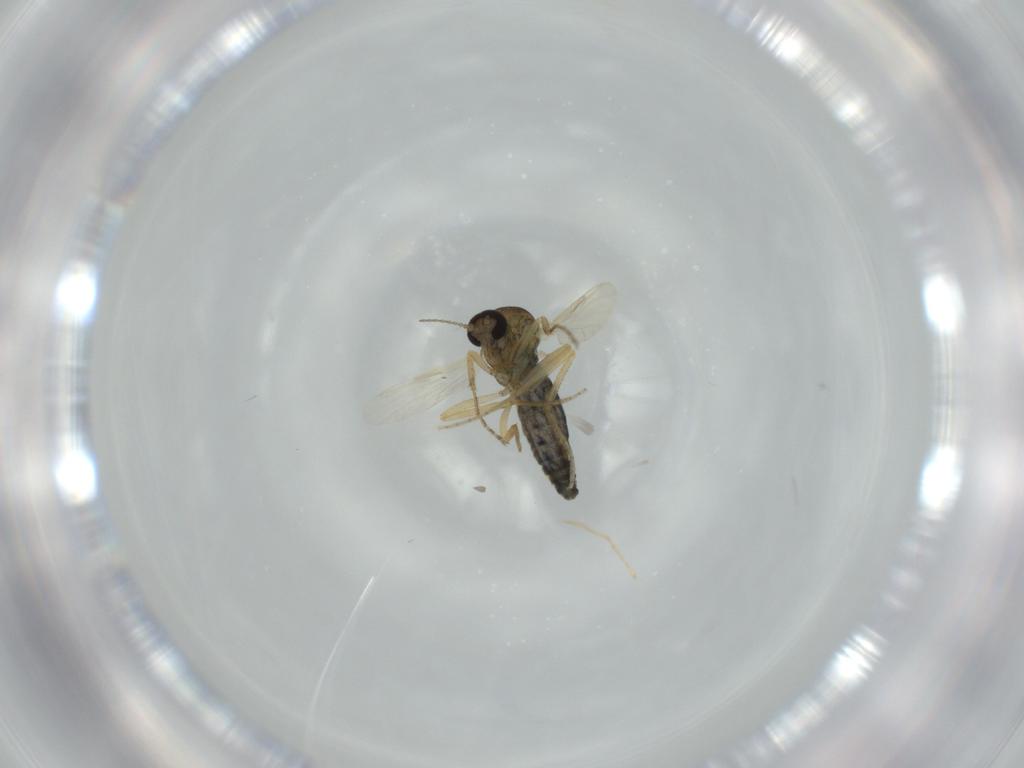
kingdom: Animalia
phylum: Arthropoda
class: Insecta
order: Diptera
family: Ceratopogonidae
